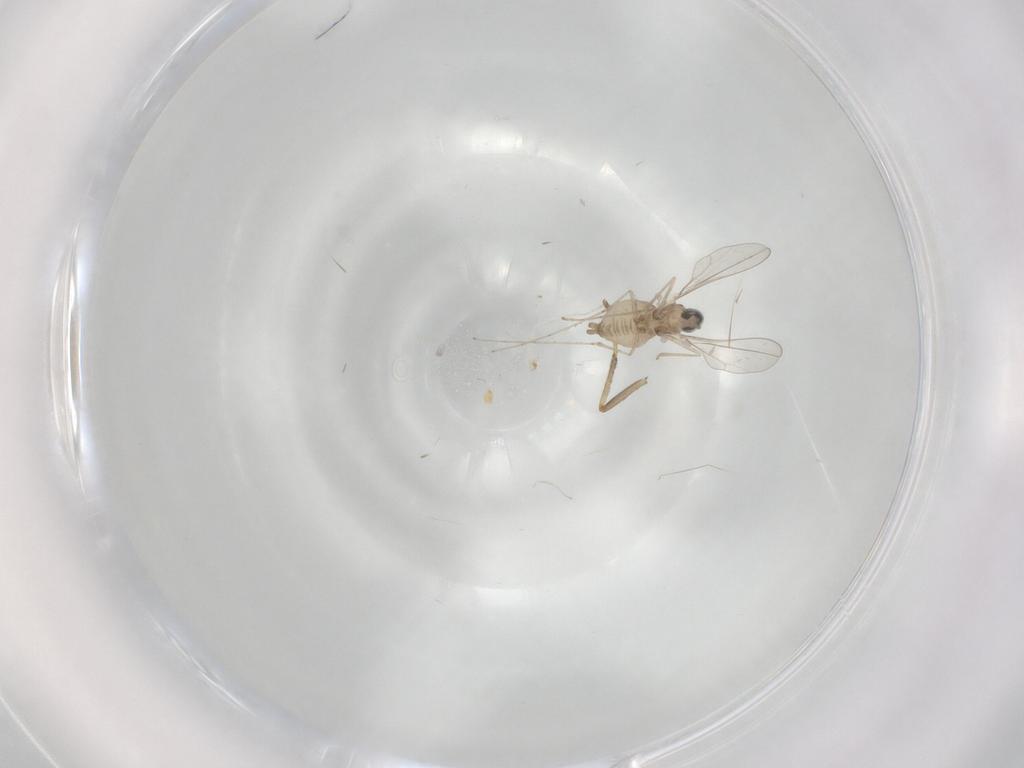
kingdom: Animalia
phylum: Arthropoda
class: Insecta
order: Diptera
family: Cecidomyiidae
